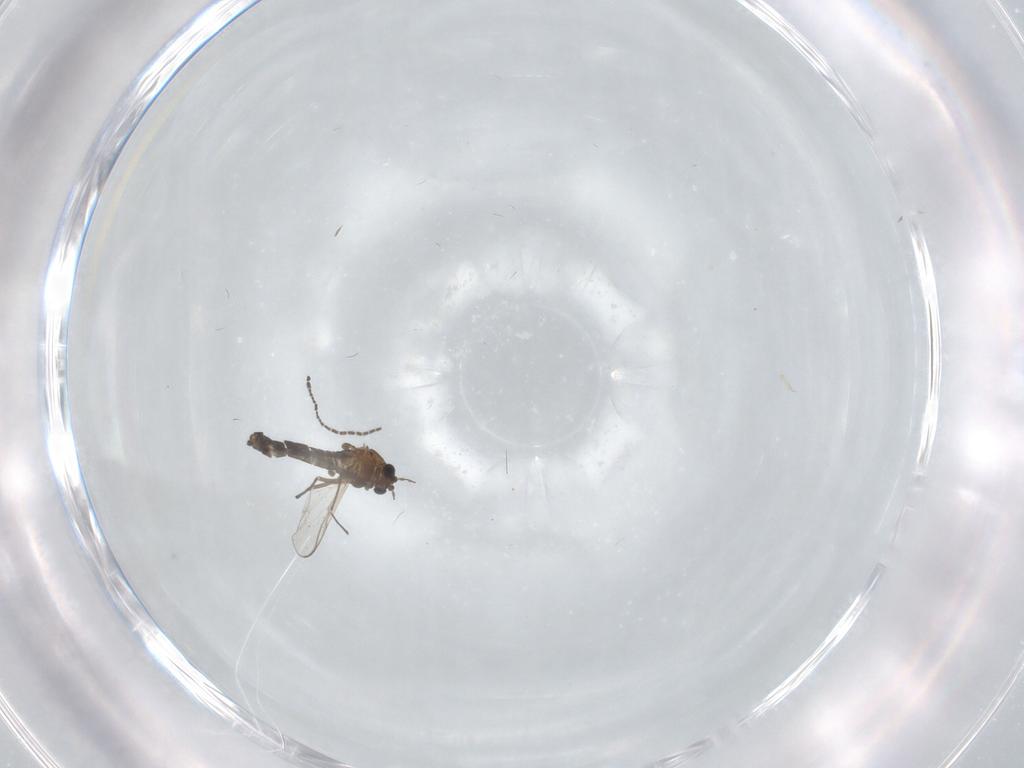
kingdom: Animalia
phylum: Arthropoda
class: Insecta
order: Diptera
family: Chironomidae
